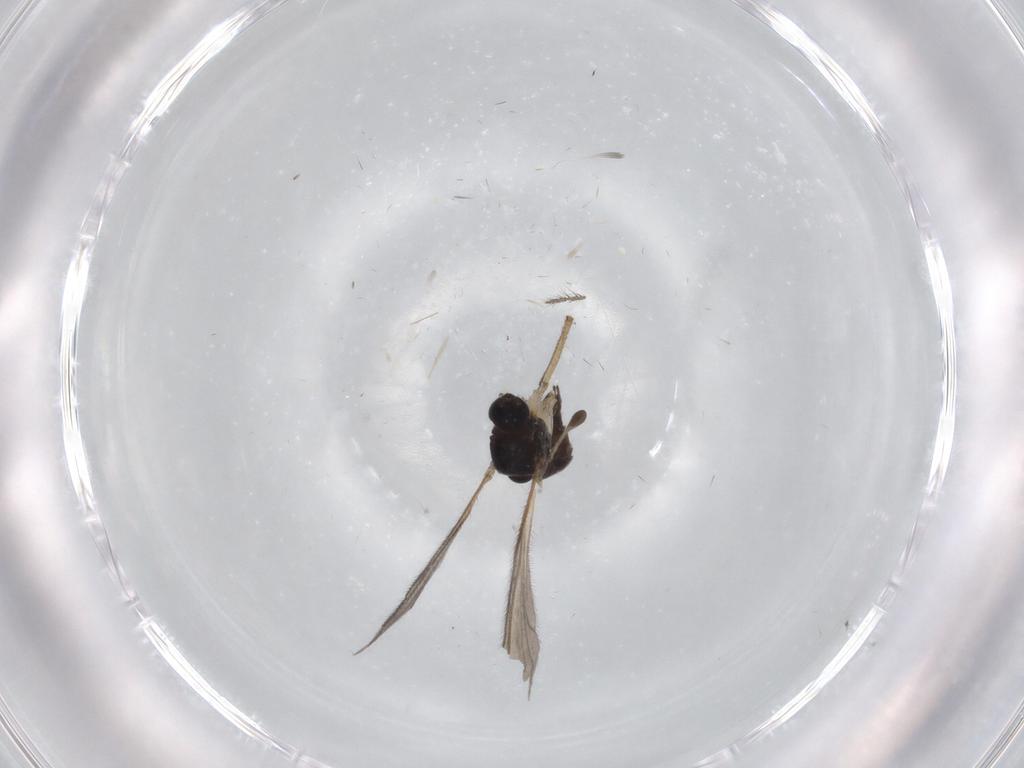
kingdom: Animalia
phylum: Arthropoda
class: Insecta
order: Diptera
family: Sciaridae
